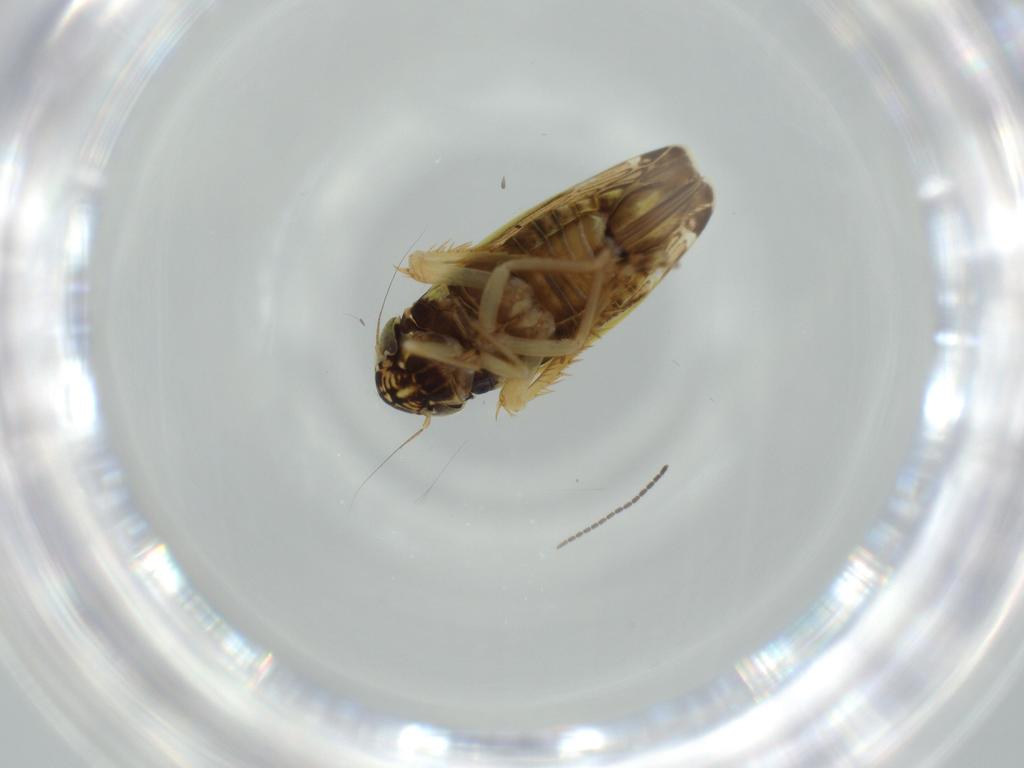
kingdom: Animalia
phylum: Arthropoda
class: Insecta
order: Hemiptera
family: Cicadellidae
